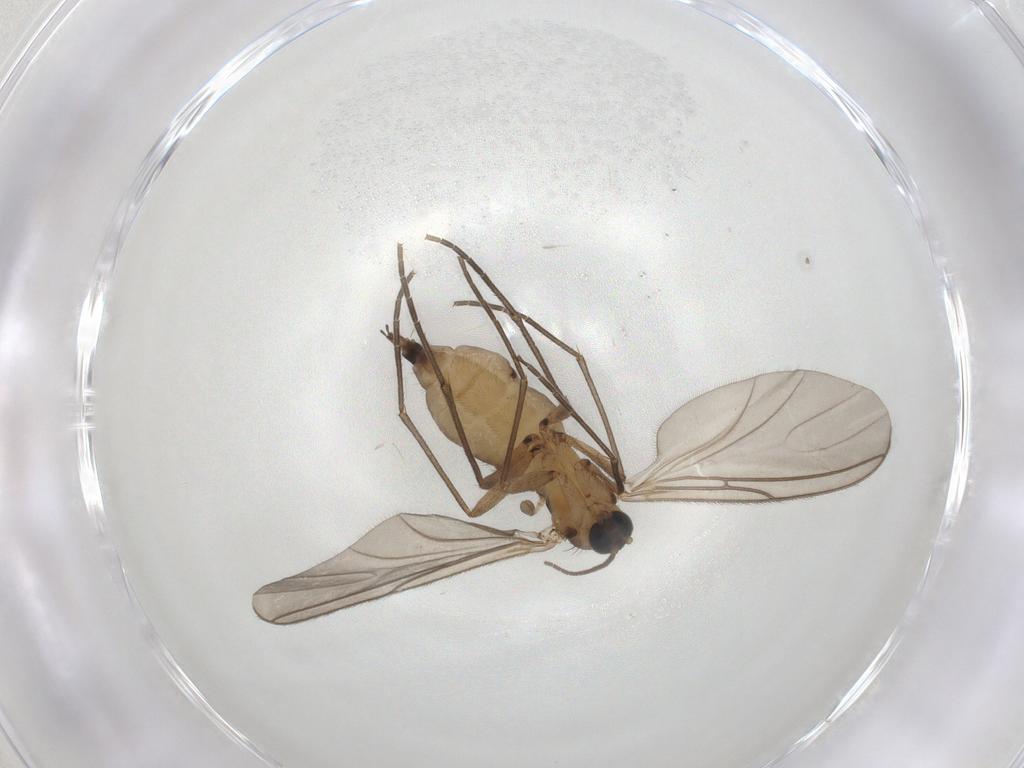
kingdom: Animalia
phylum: Arthropoda
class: Insecta
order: Diptera
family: Sciaridae
